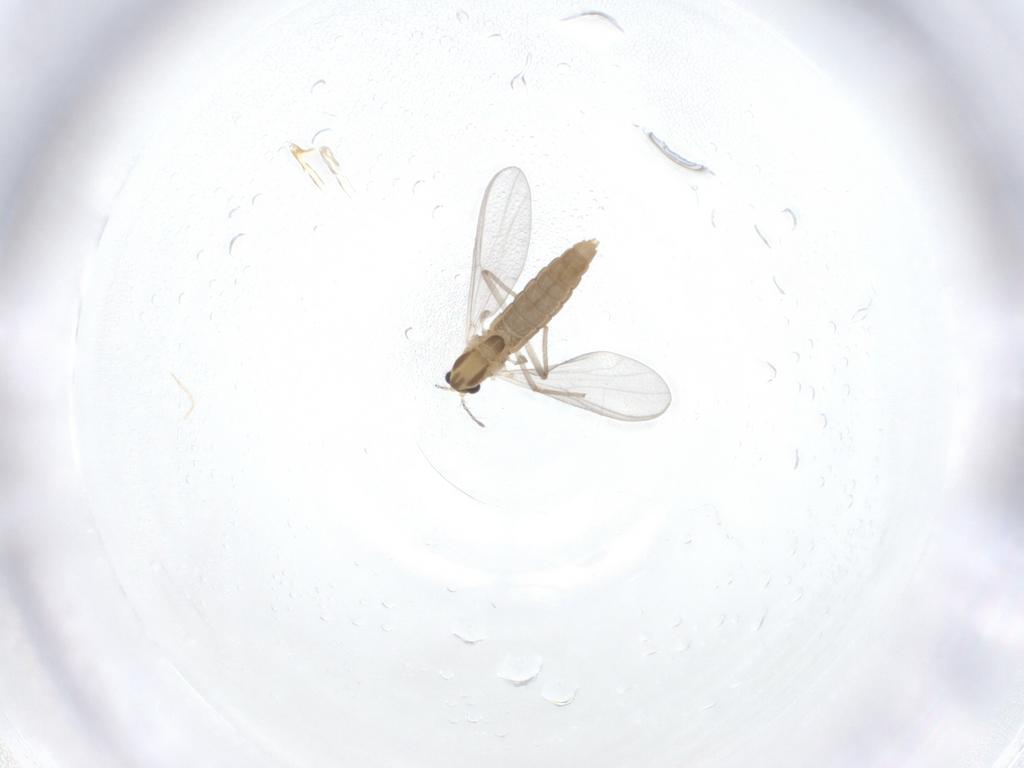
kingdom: Animalia
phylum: Arthropoda
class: Insecta
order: Diptera
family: Chironomidae
